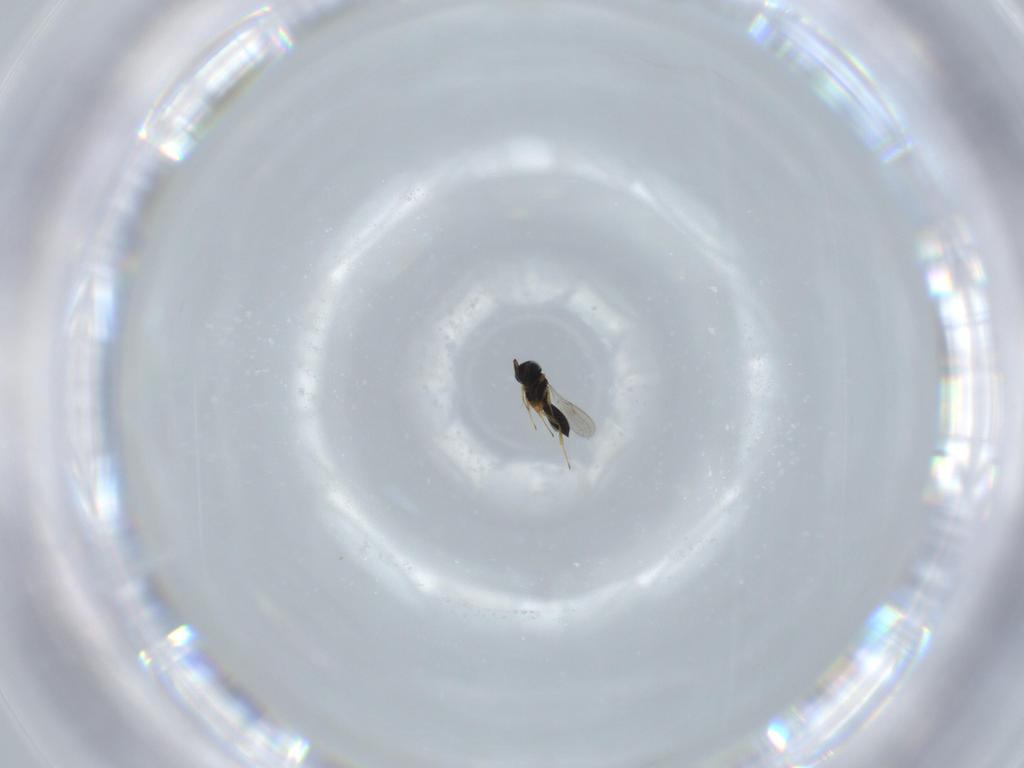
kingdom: Animalia
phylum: Arthropoda
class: Insecta
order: Hymenoptera
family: Scelionidae
